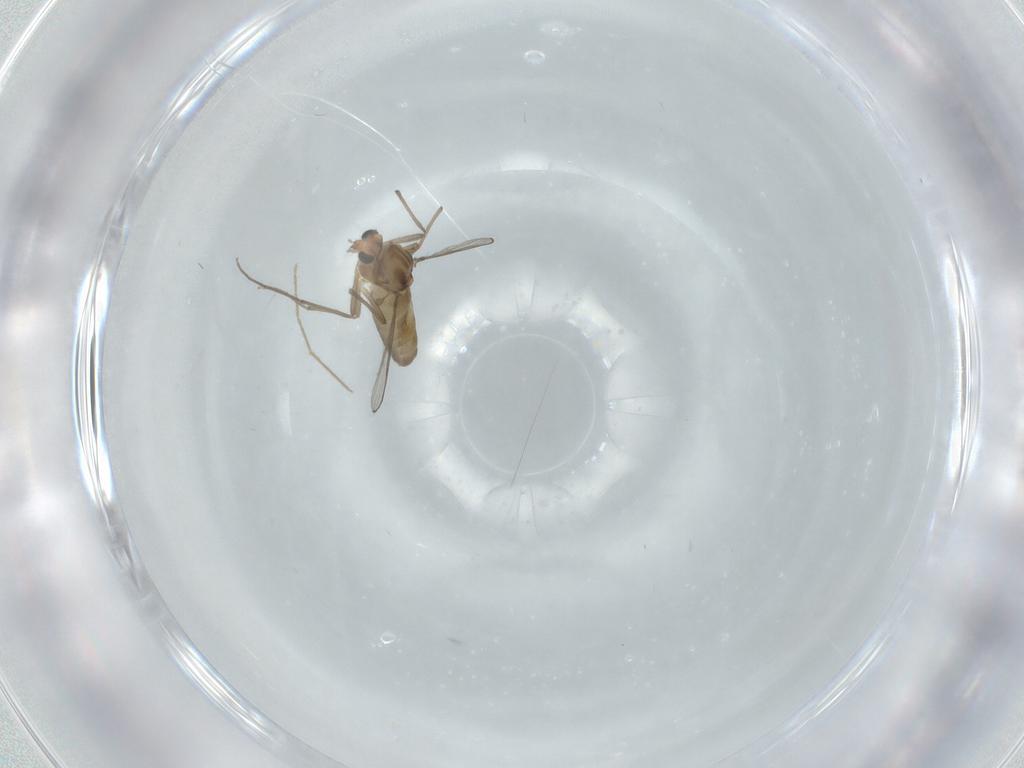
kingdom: Animalia
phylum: Arthropoda
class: Insecta
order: Diptera
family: Chironomidae
